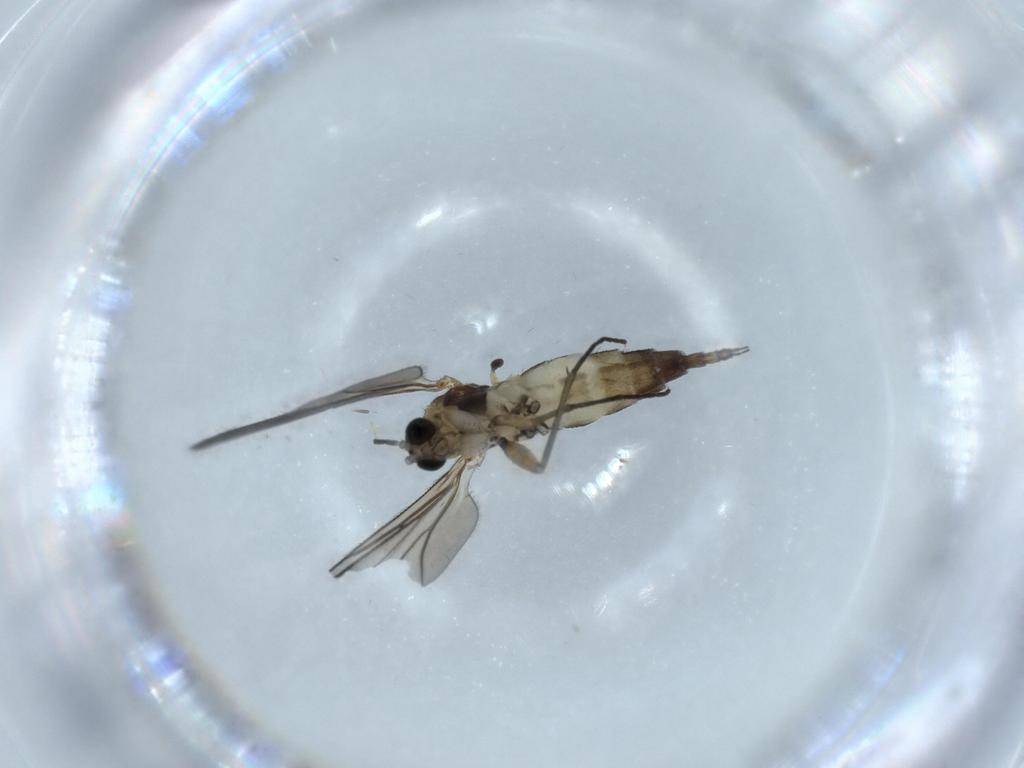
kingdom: Animalia
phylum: Arthropoda
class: Insecta
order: Diptera
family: Sciaridae
